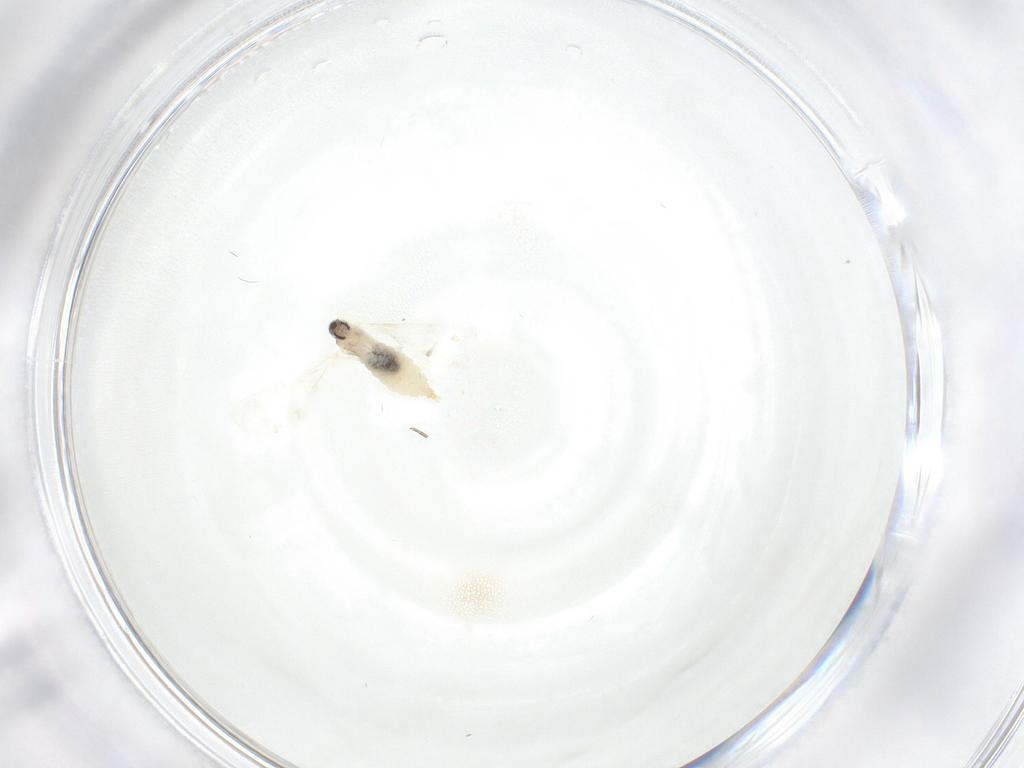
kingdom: Animalia
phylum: Arthropoda
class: Insecta
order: Diptera
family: Cecidomyiidae
